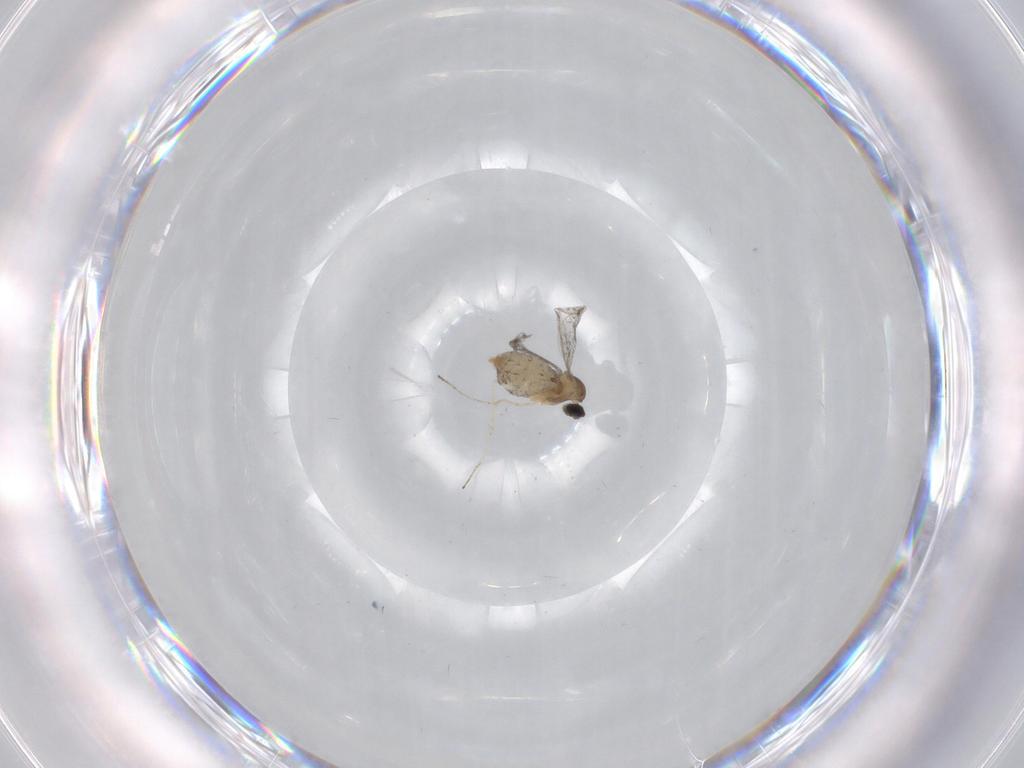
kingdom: Animalia
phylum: Arthropoda
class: Insecta
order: Diptera
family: Cecidomyiidae
